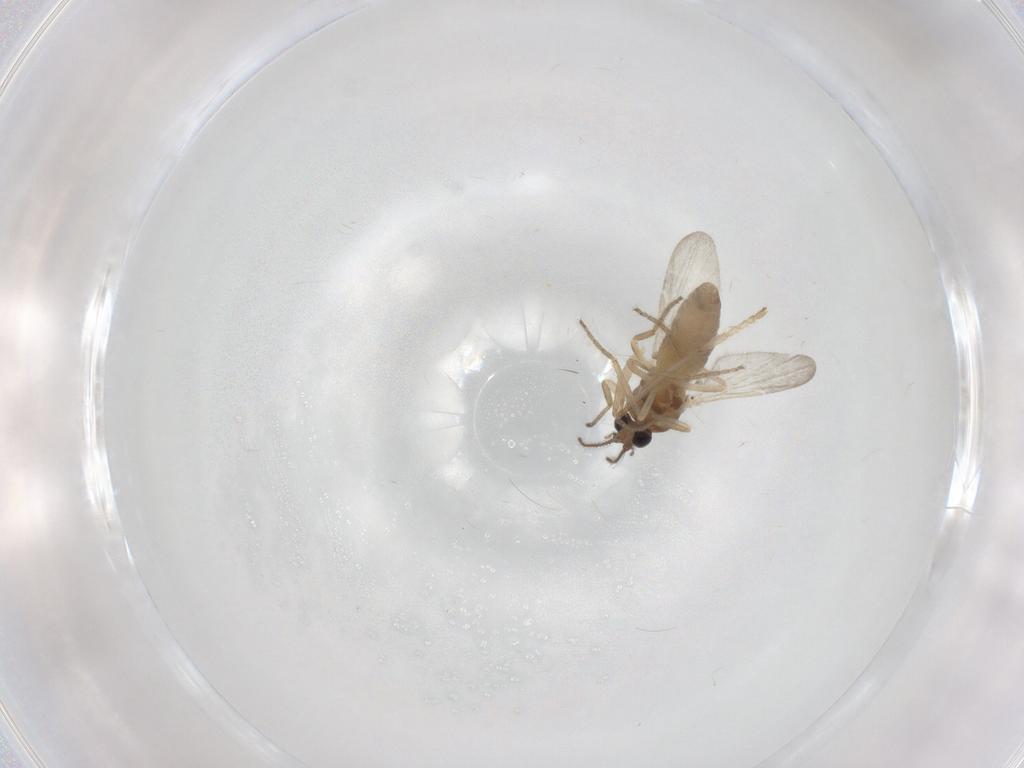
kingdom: Animalia
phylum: Arthropoda
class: Insecta
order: Diptera
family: Ceratopogonidae
